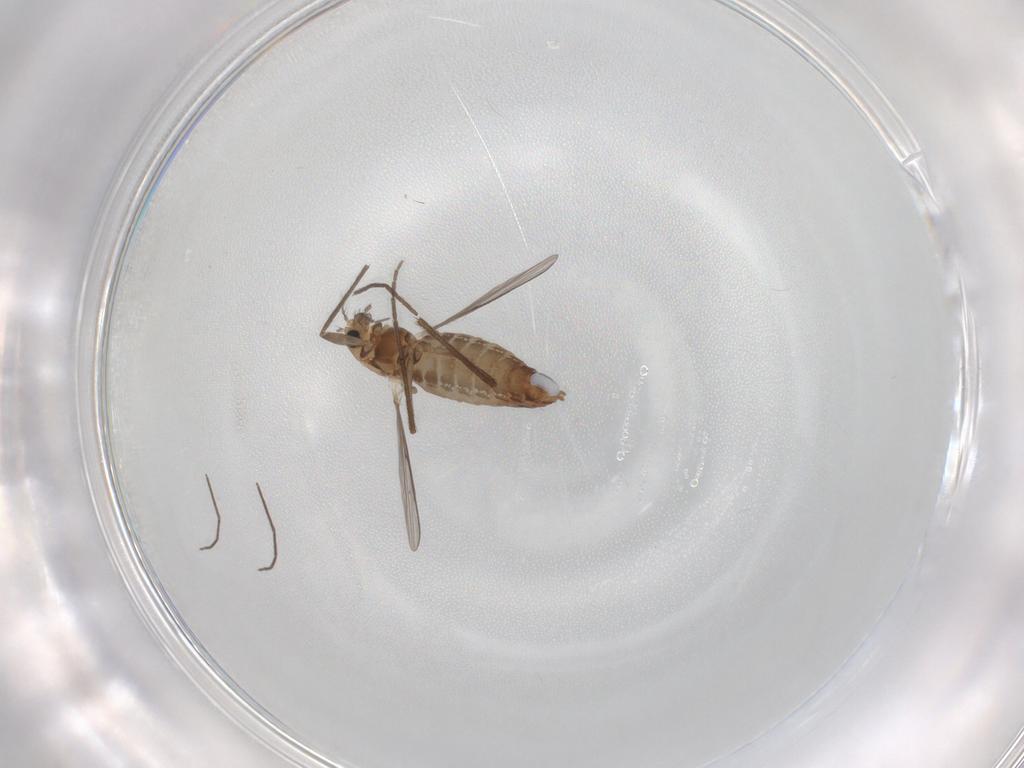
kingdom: Animalia
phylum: Arthropoda
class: Insecta
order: Diptera
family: Chironomidae
